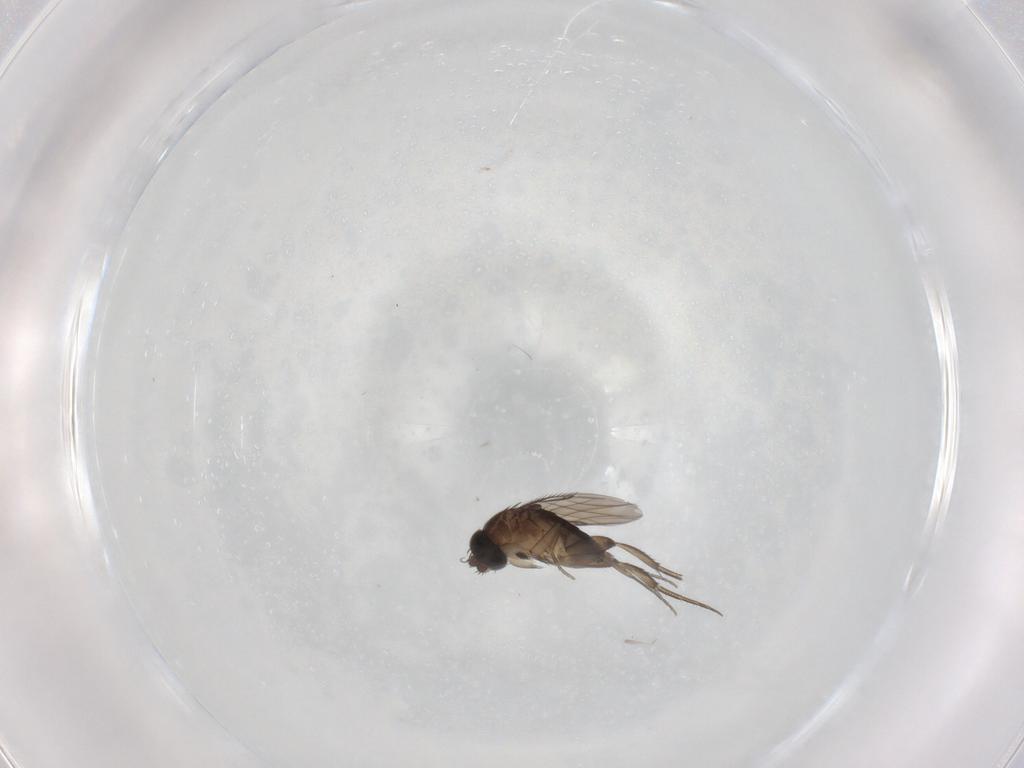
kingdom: Animalia
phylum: Arthropoda
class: Insecta
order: Diptera
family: Phoridae
